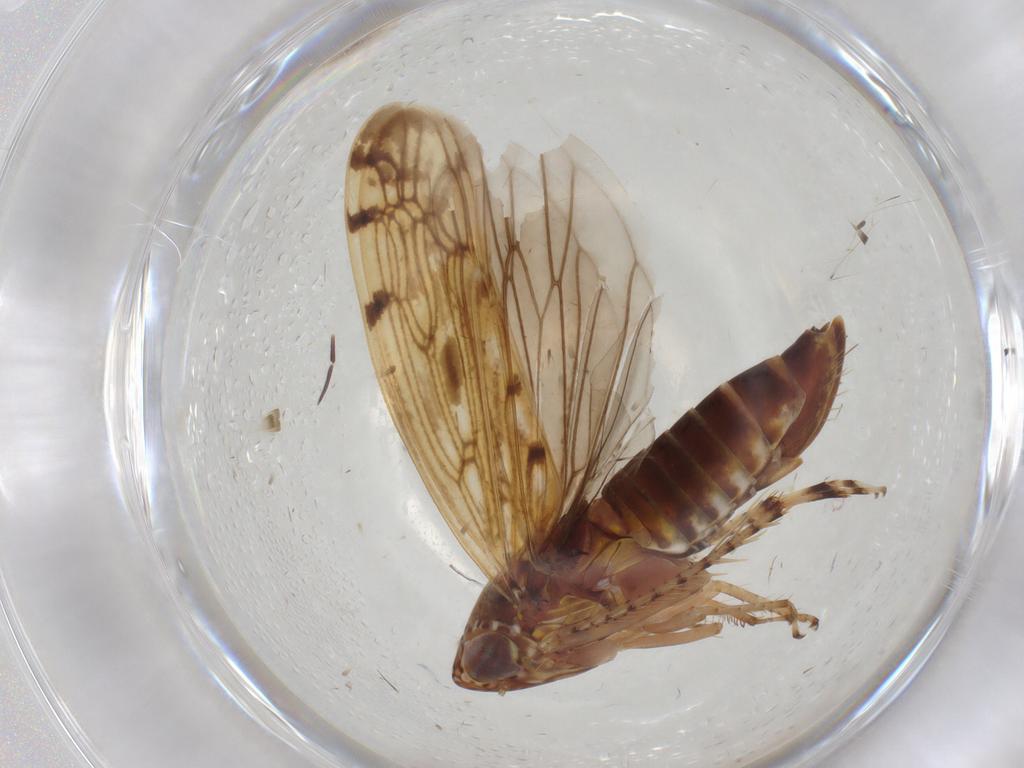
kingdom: Animalia
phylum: Arthropoda
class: Insecta
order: Hemiptera
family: Cicadellidae
